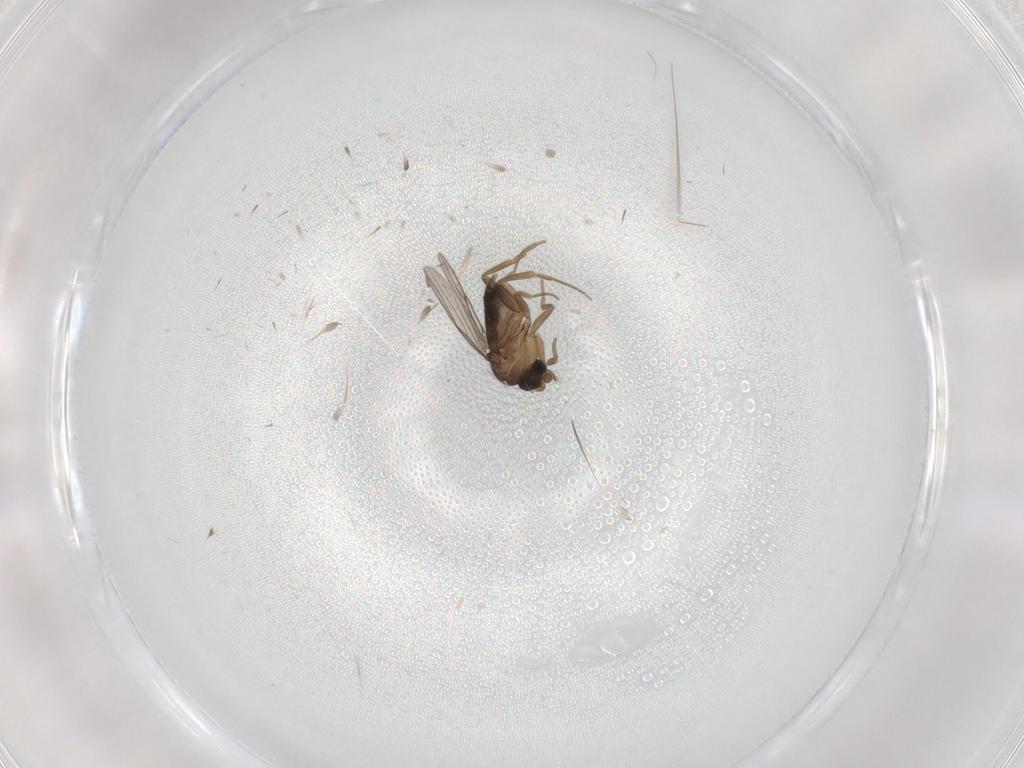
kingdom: Animalia
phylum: Arthropoda
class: Insecta
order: Diptera
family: Phoridae
